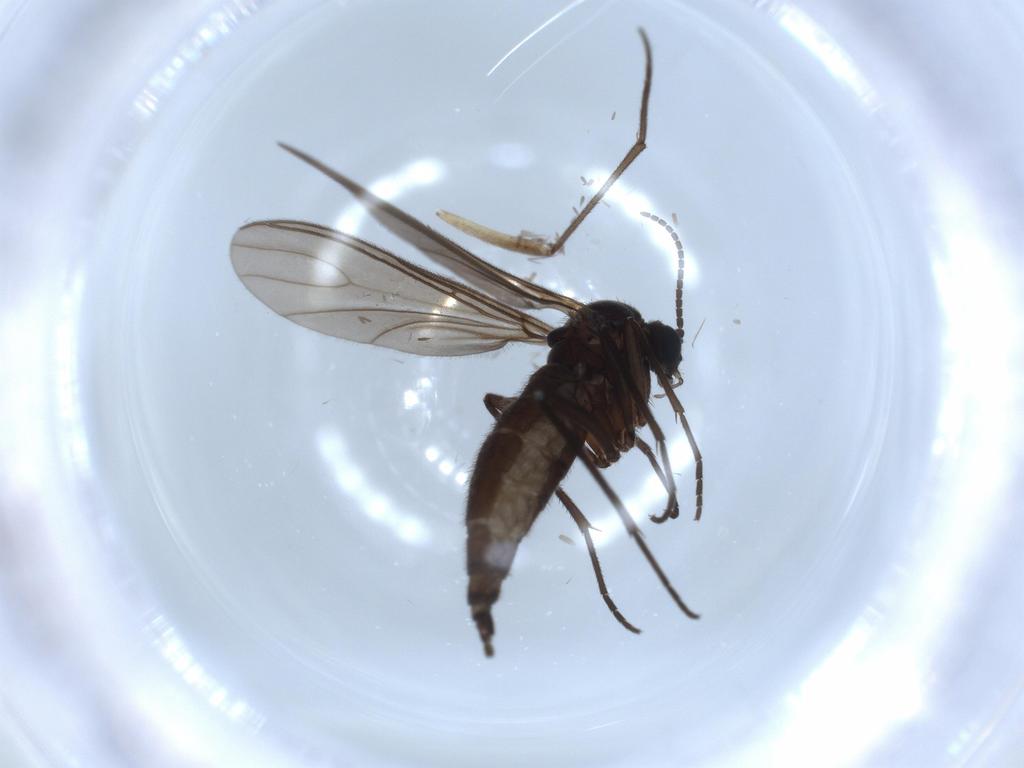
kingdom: Animalia
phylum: Arthropoda
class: Insecta
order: Diptera
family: Sciaridae
